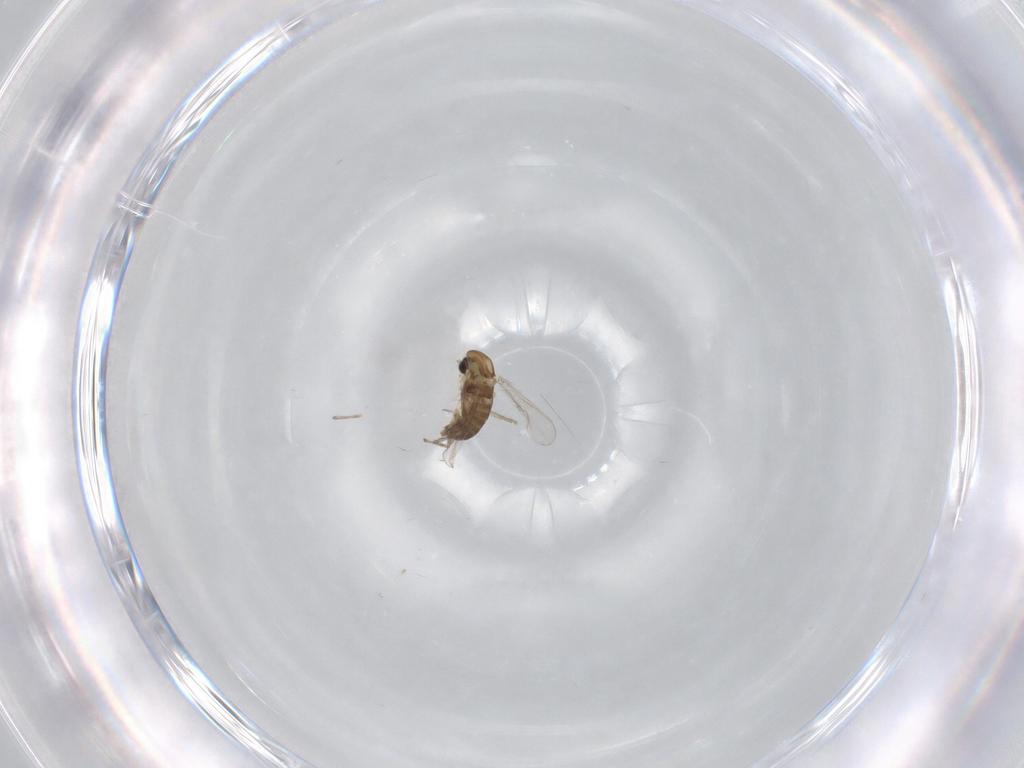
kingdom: Animalia
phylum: Arthropoda
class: Insecta
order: Diptera
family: Chironomidae
